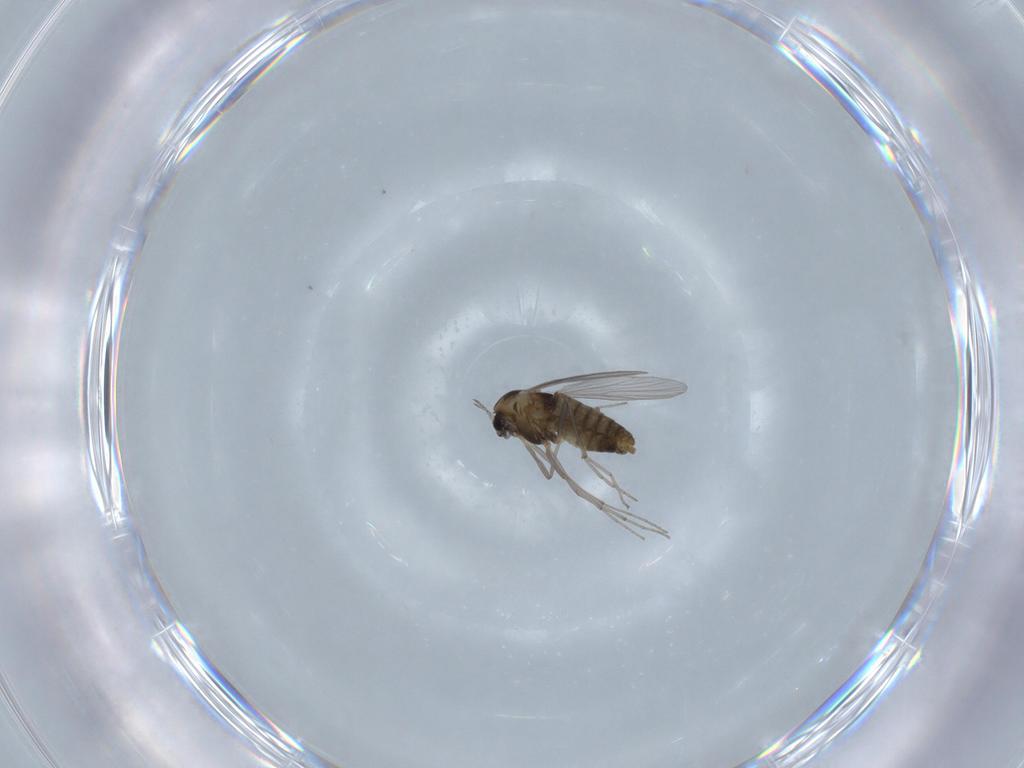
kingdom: Animalia
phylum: Arthropoda
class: Insecta
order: Diptera
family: Chironomidae
